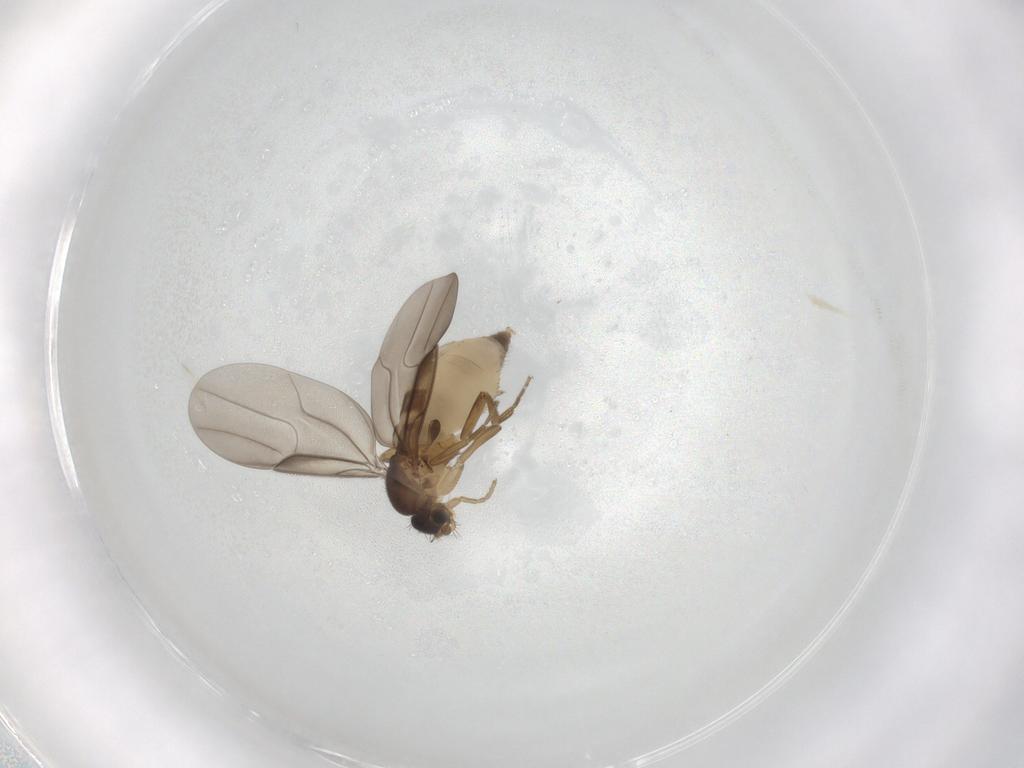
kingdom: Animalia
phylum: Arthropoda
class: Insecta
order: Diptera
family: Phoridae
